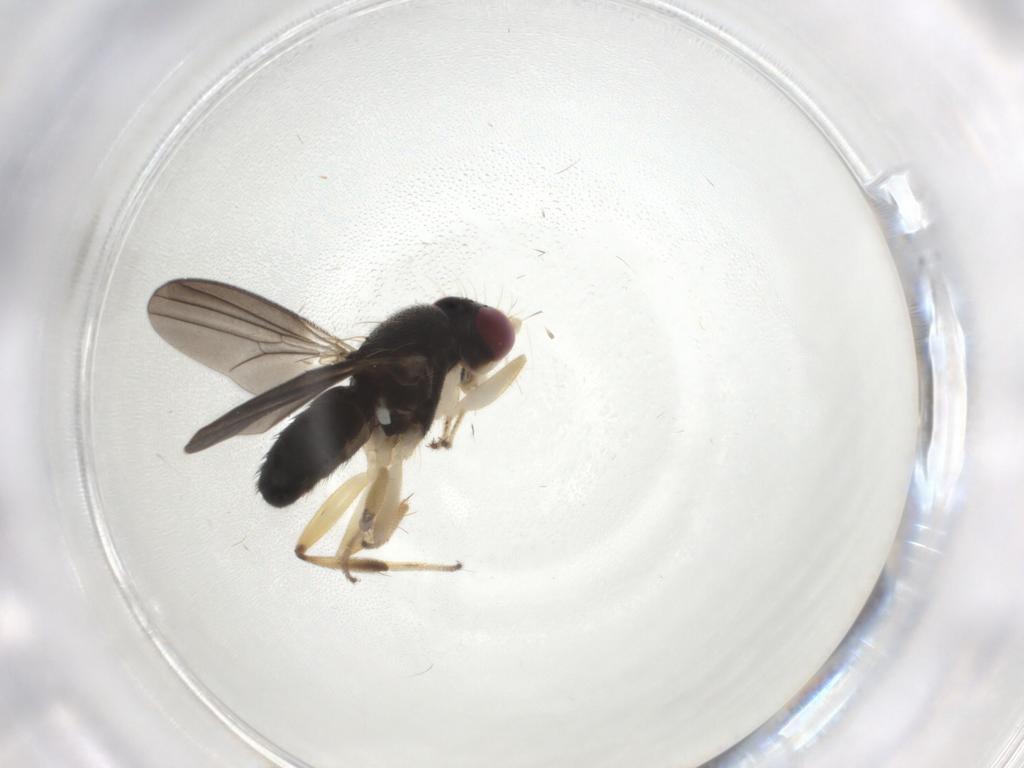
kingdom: Animalia
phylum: Arthropoda
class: Insecta
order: Diptera
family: Clusiidae
